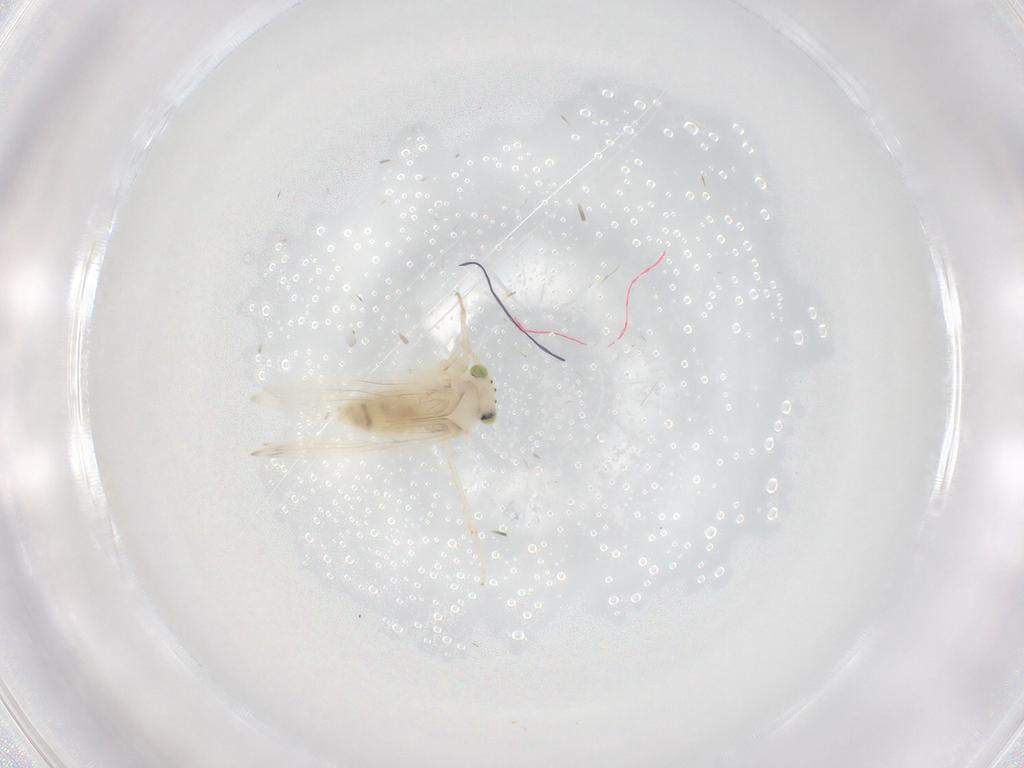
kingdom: Animalia
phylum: Arthropoda
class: Insecta
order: Psocodea
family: Lepidopsocidae
